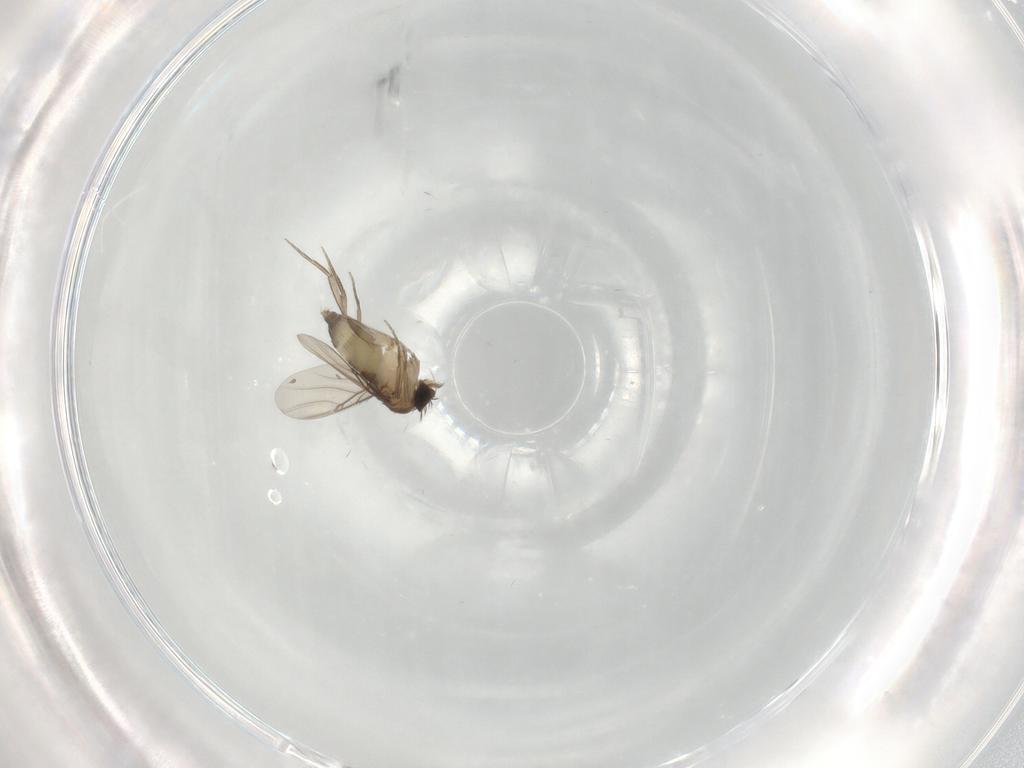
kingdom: Animalia
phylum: Arthropoda
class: Insecta
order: Diptera
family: Phoridae
